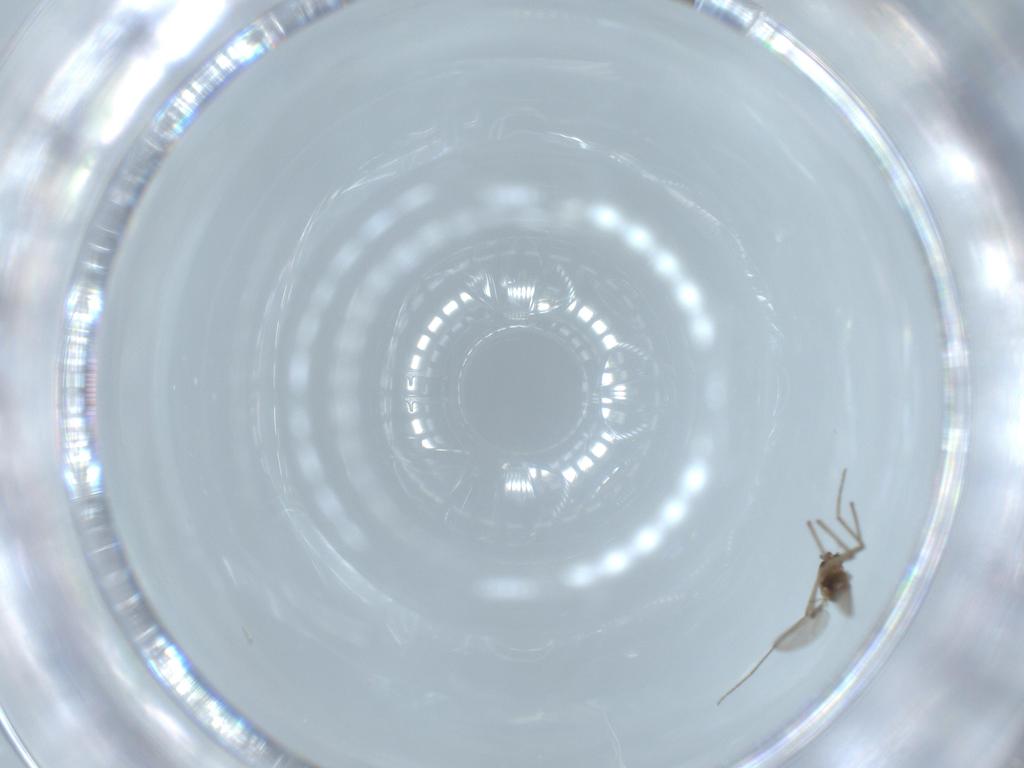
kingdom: Animalia
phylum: Arthropoda
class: Insecta
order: Diptera
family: Chironomidae
